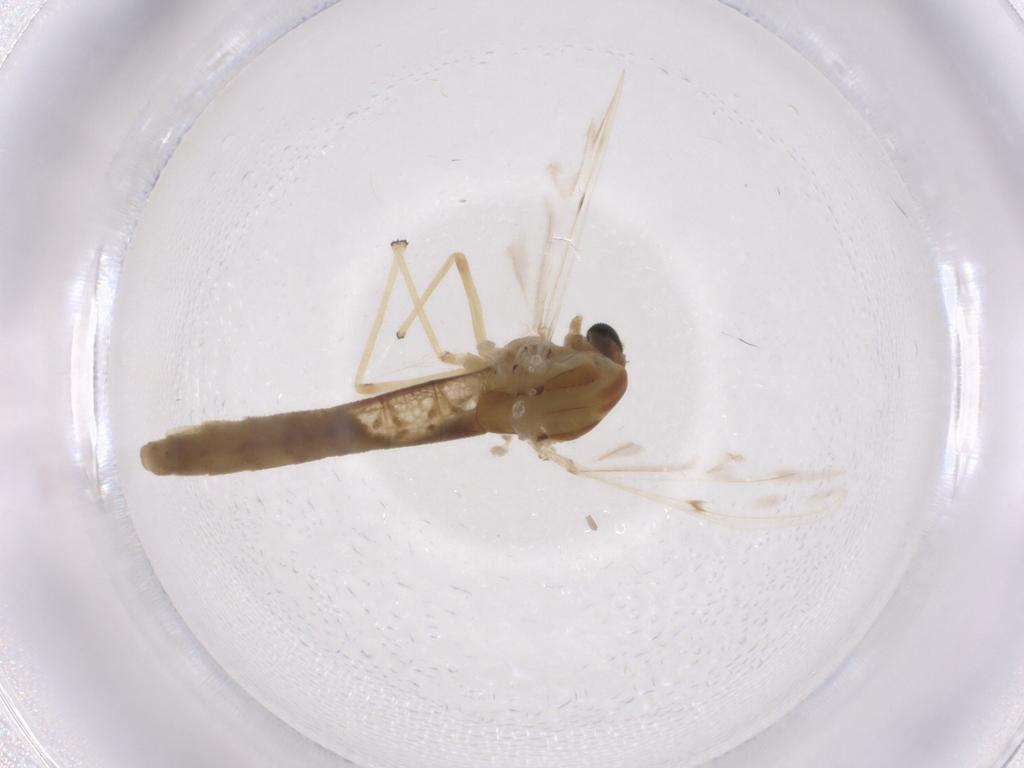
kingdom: Animalia
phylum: Arthropoda
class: Insecta
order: Diptera
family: Chironomidae
